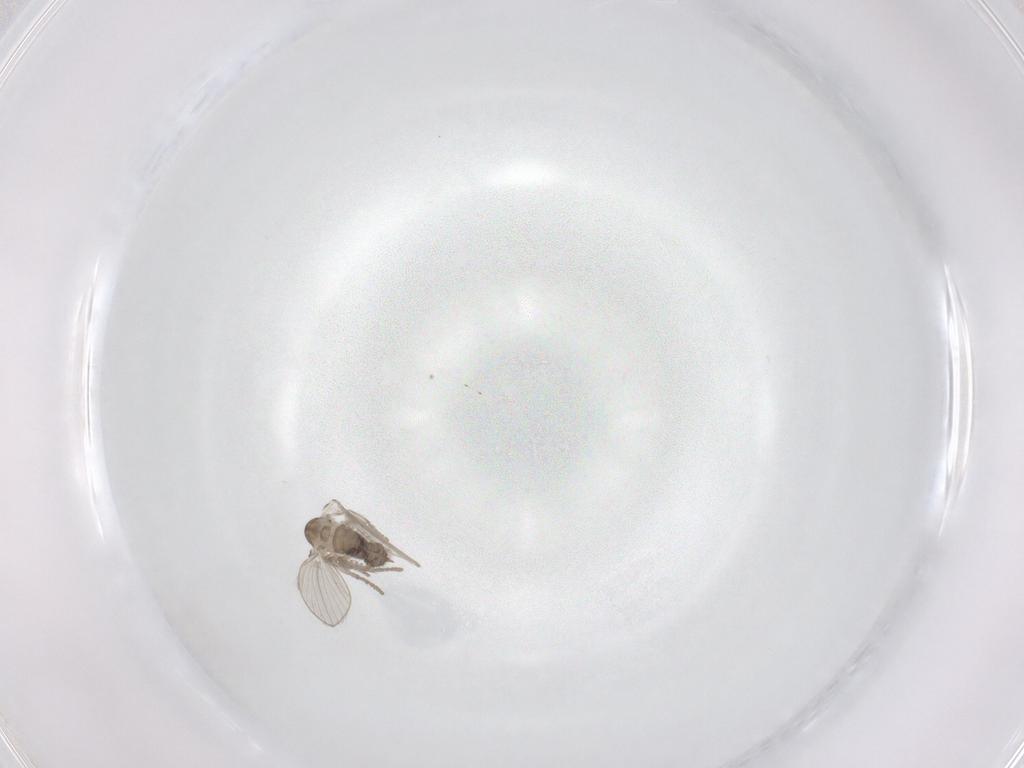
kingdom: Animalia
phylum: Arthropoda
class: Insecta
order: Diptera
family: Psychodidae
